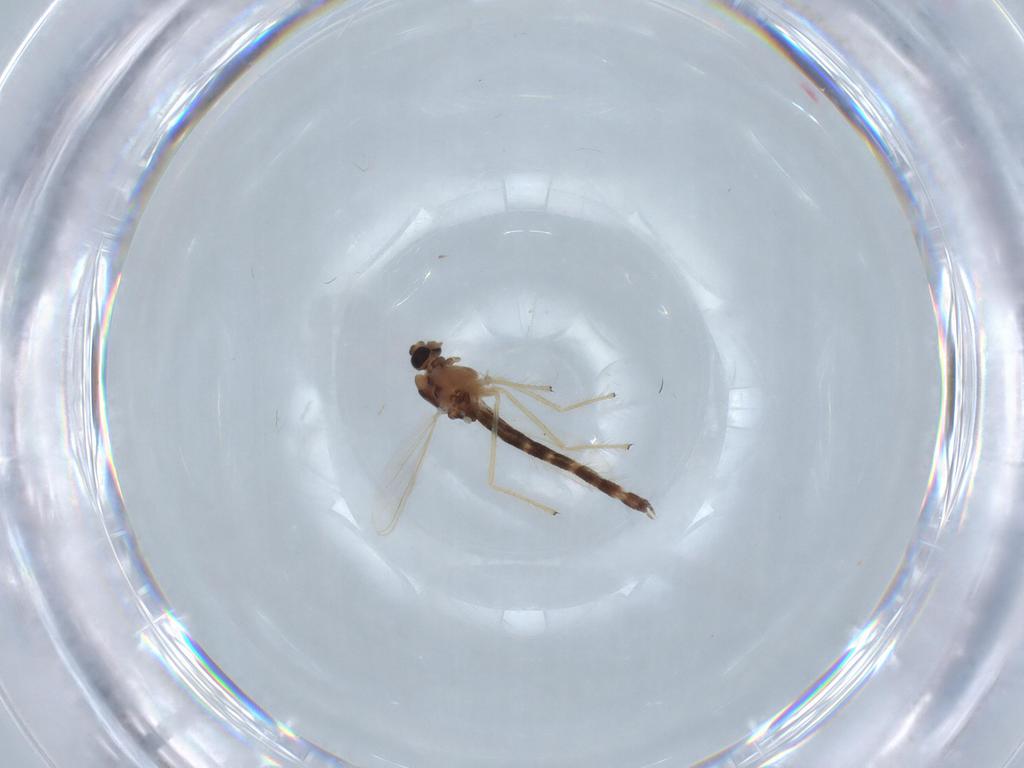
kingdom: Animalia
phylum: Arthropoda
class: Insecta
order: Diptera
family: Chironomidae
